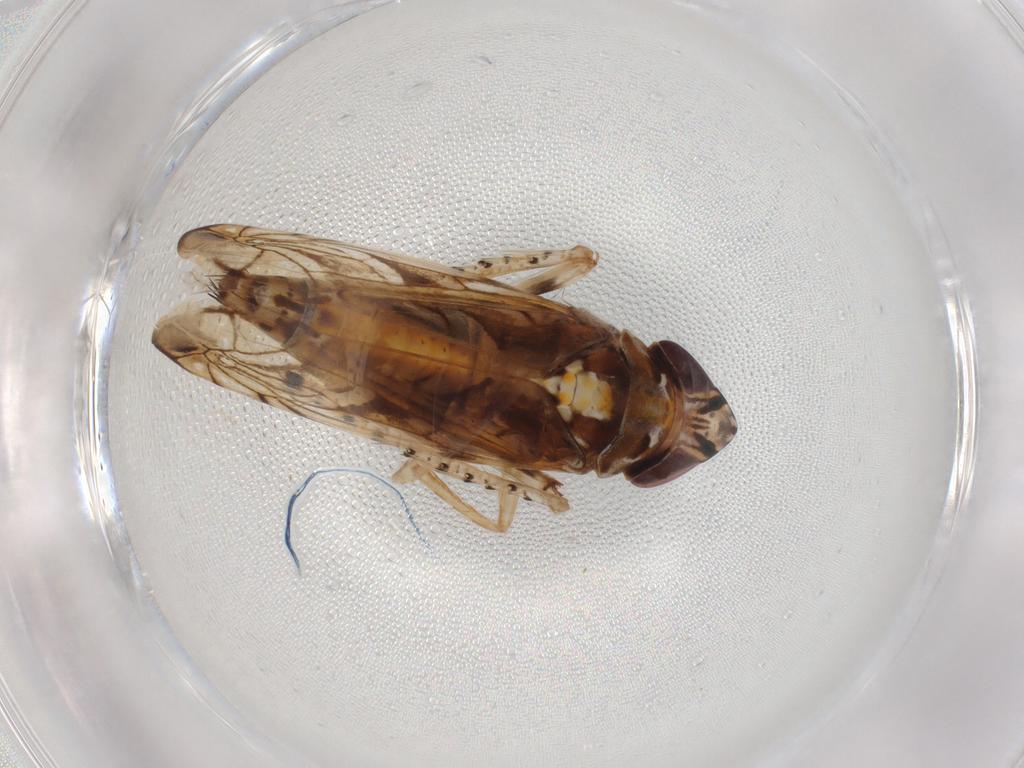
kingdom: Animalia
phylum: Arthropoda
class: Insecta
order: Hemiptera
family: Cicadellidae
